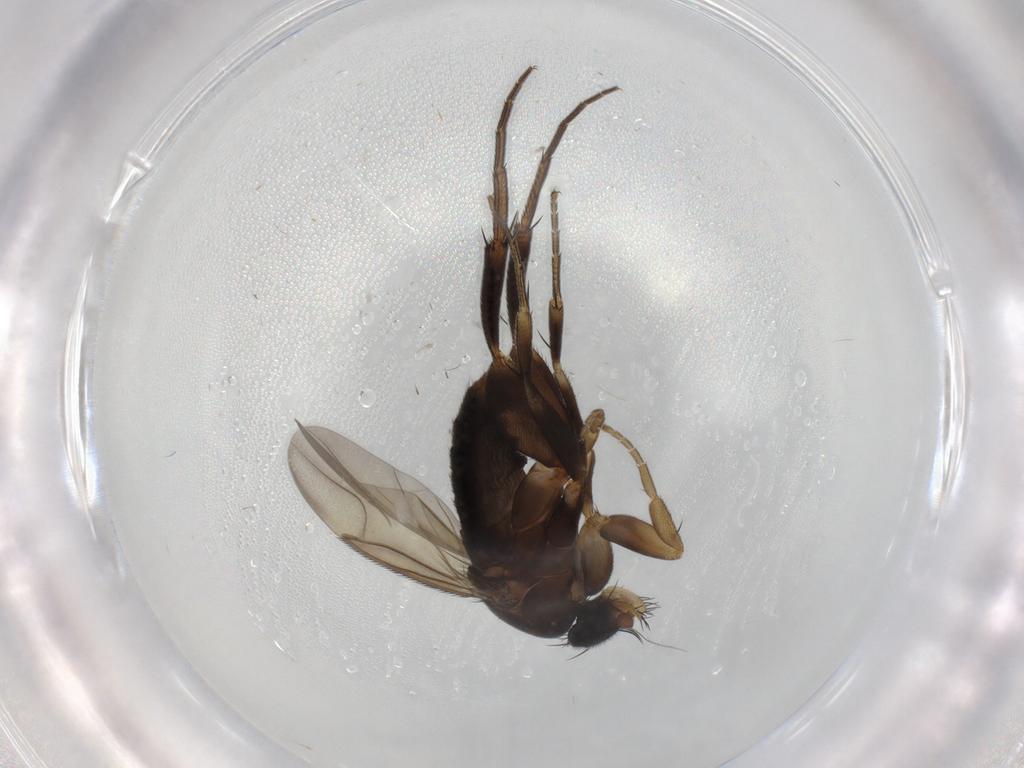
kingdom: Animalia
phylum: Arthropoda
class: Insecta
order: Diptera
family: Phoridae
